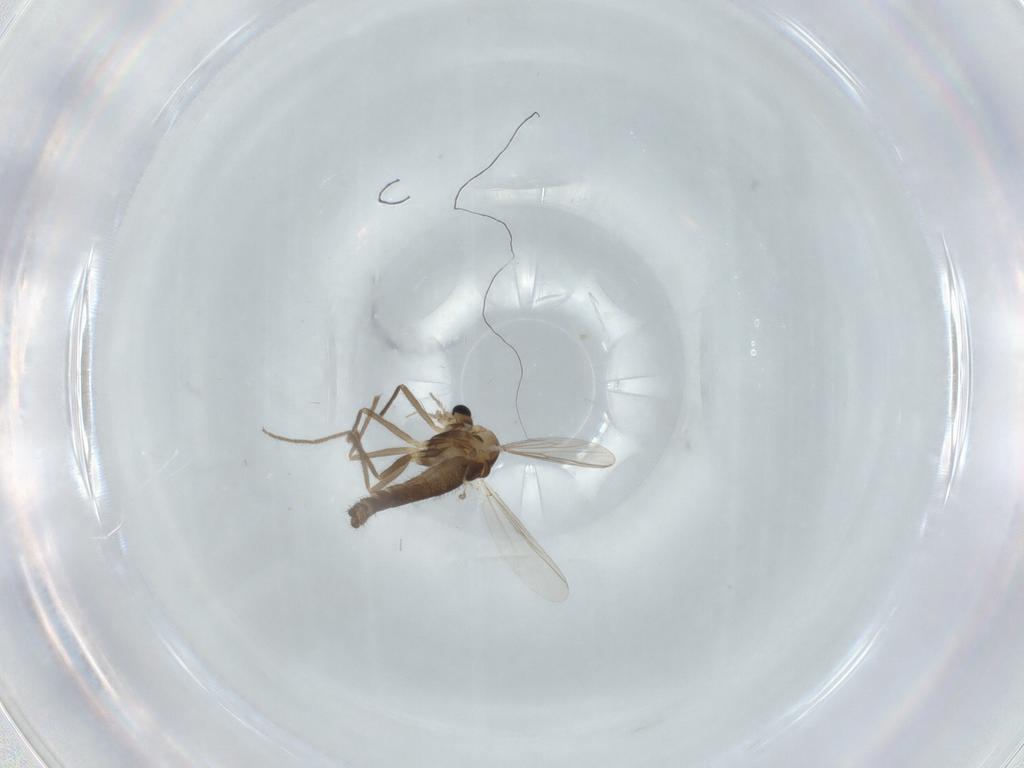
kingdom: Animalia
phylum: Arthropoda
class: Insecta
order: Diptera
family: Chironomidae
